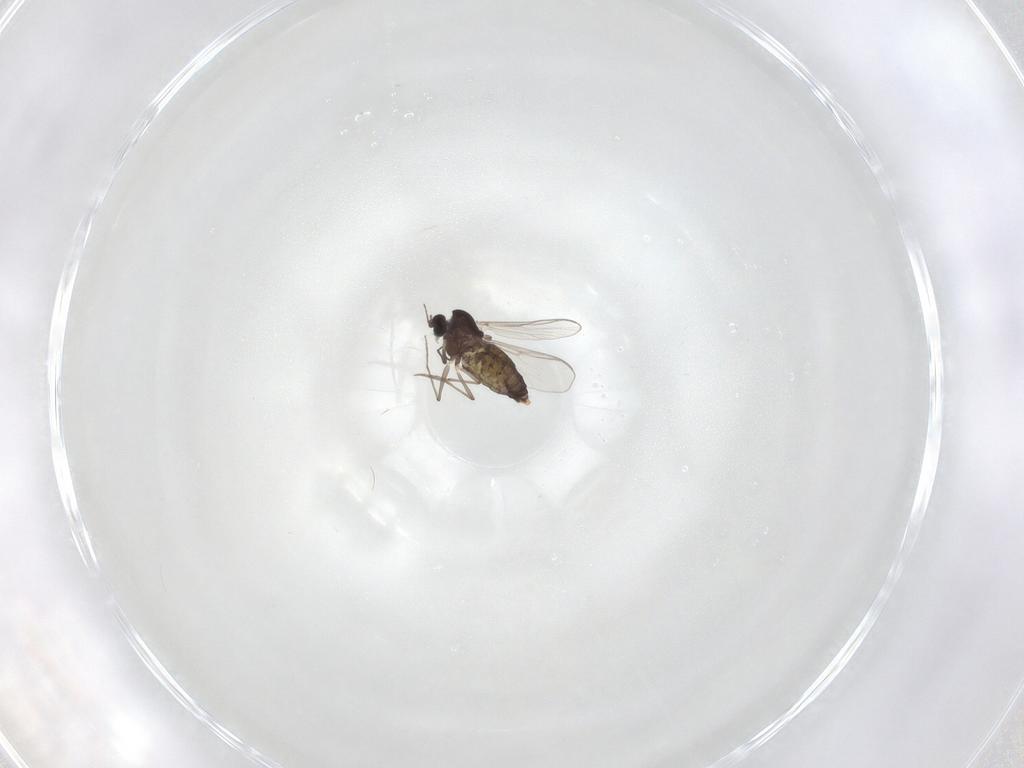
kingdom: Animalia
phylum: Arthropoda
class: Insecta
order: Diptera
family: Chironomidae
